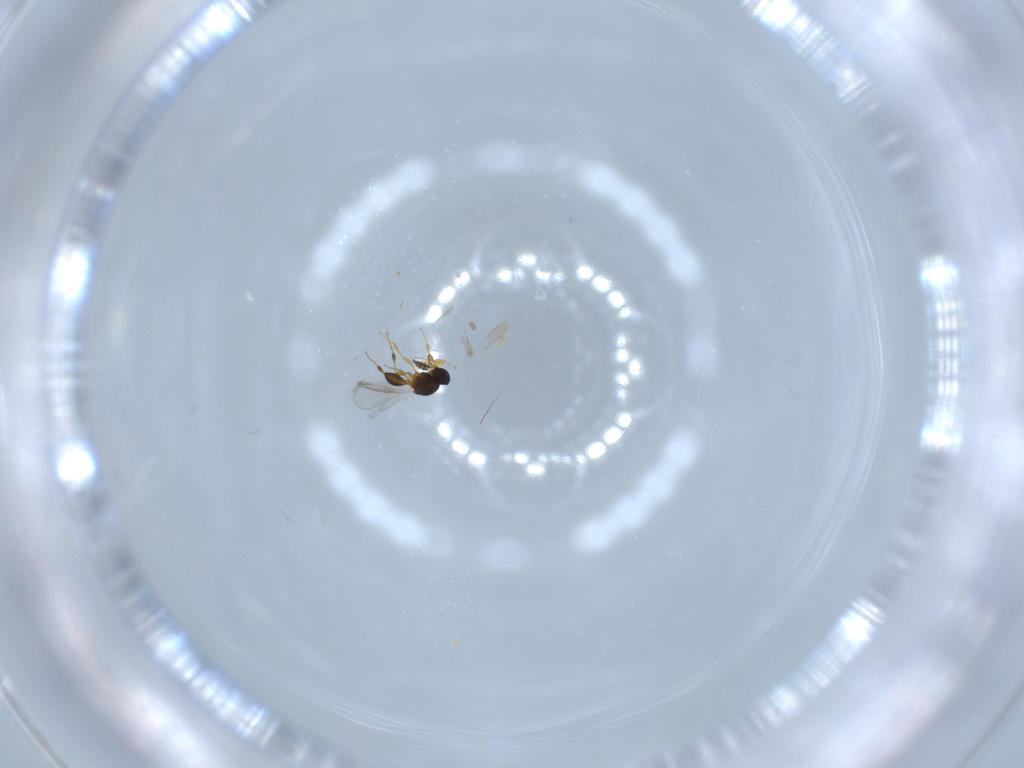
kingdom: Animalia
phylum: Arthropoda
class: Insecta
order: Hymenoptera
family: Platygastridae
